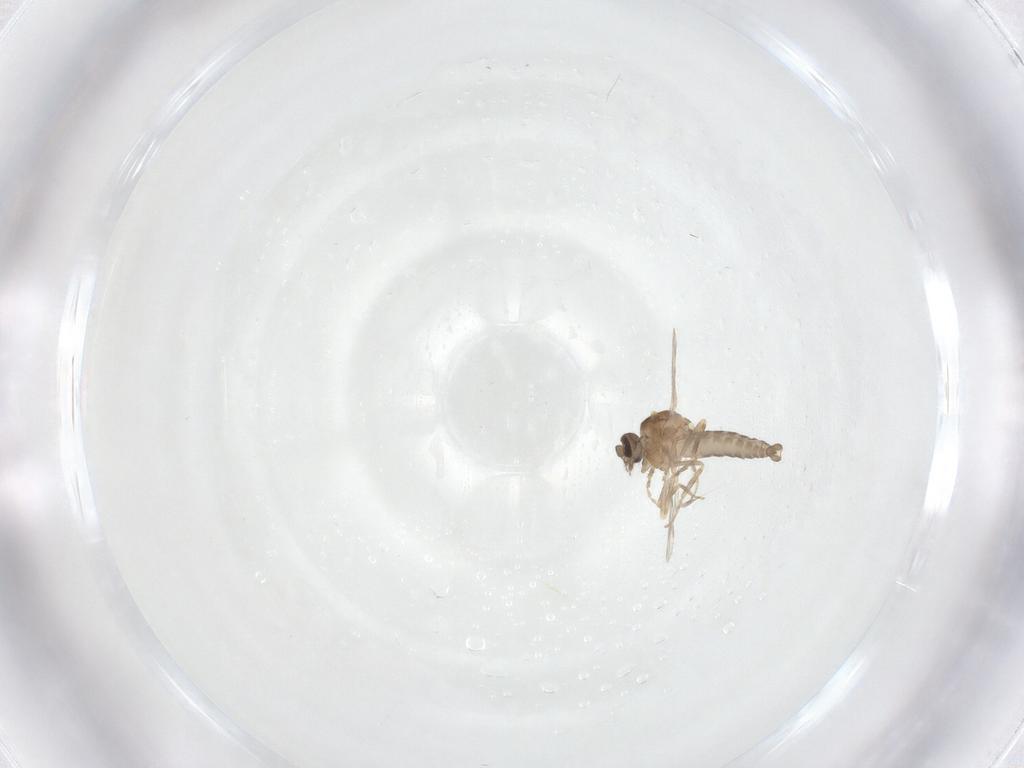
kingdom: Animalia
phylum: Arthropoda
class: Insecta
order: Diptera
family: Ceratopogonidae
